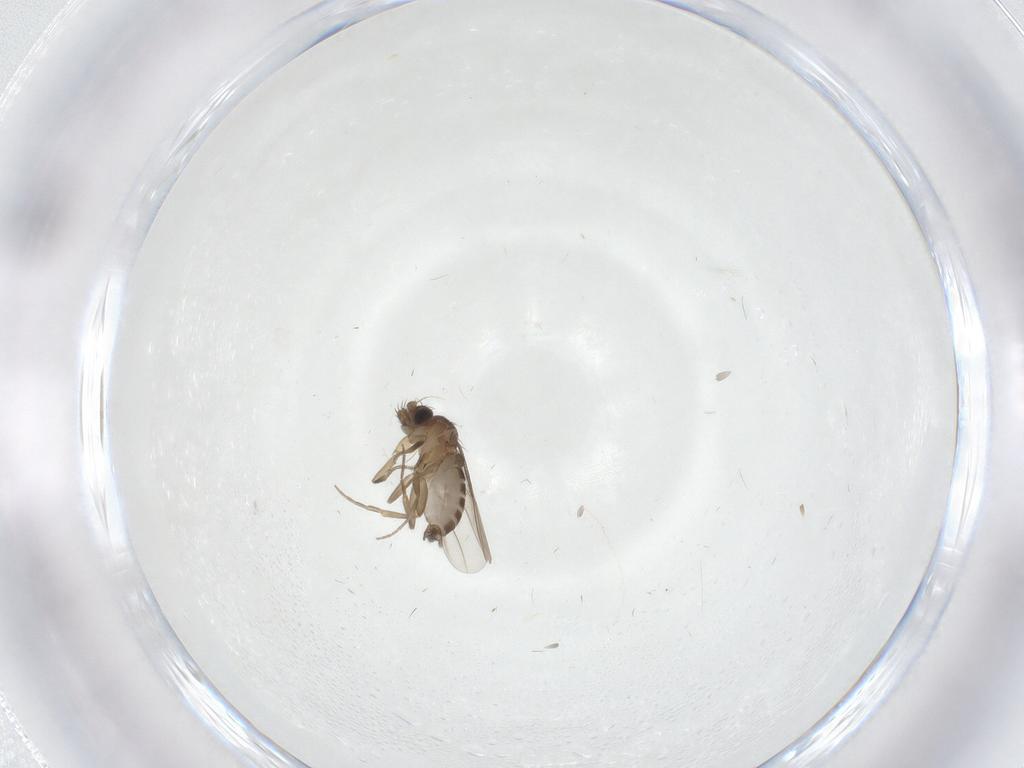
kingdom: Animalia
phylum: Arthropoda
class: Insecta
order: Diptera
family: Phoridae
